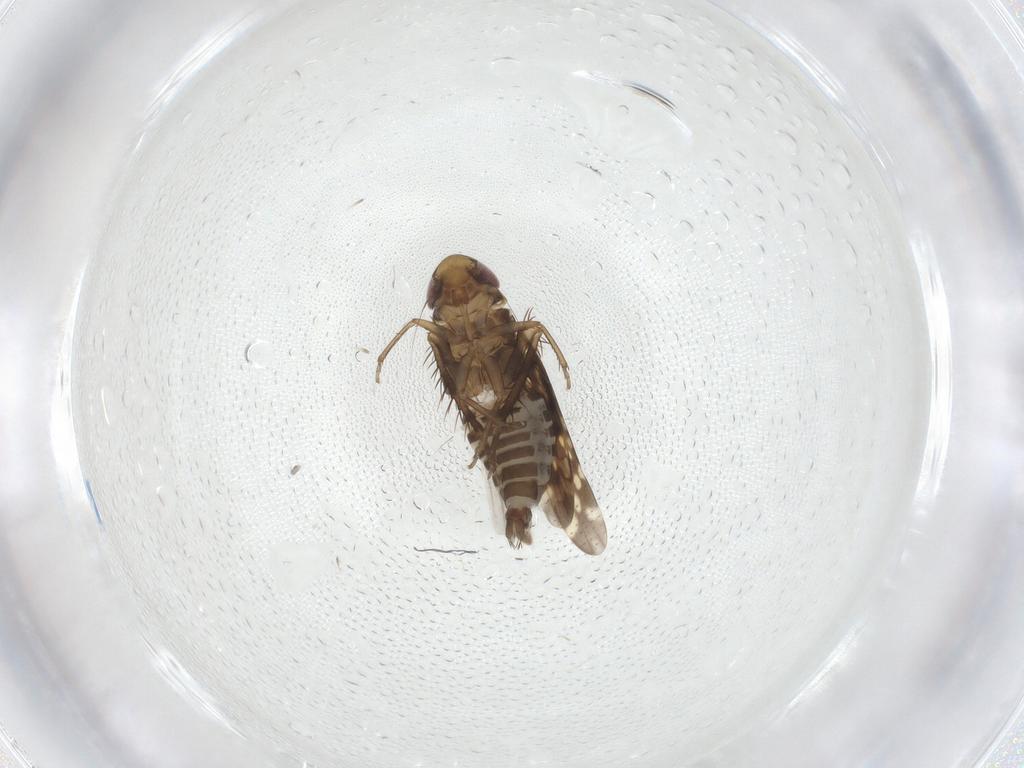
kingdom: Animalia
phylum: Arthropoda
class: Insecta
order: Hemiptera
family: Cicadellidae
